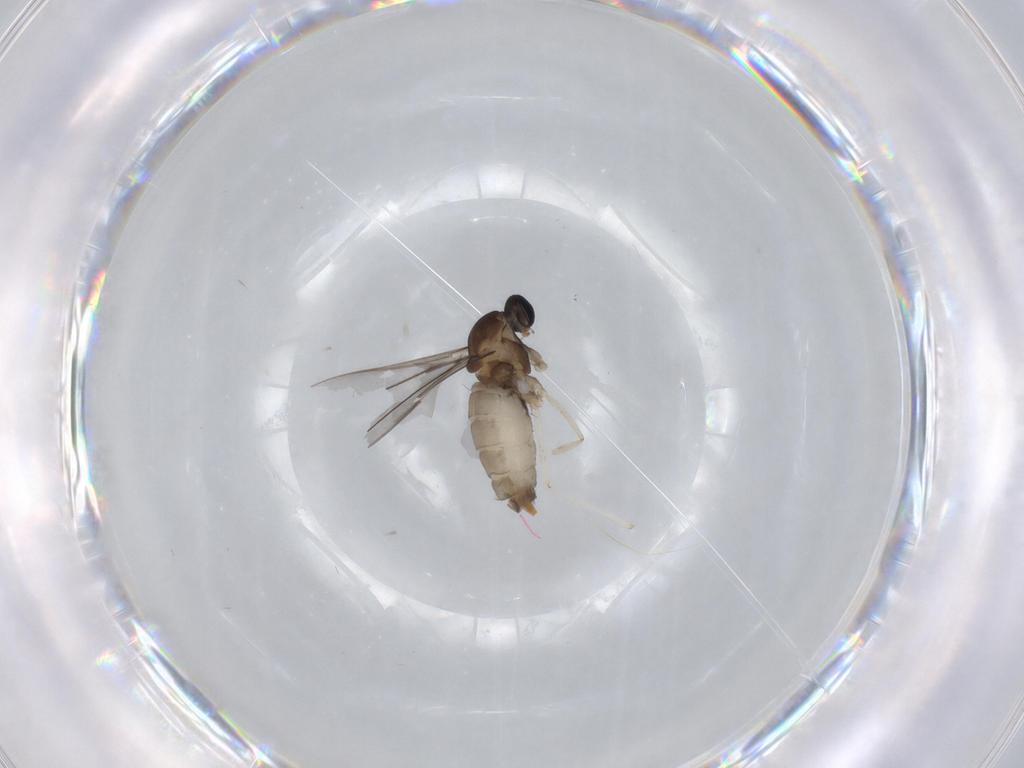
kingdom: Animalia
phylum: Arthropoda
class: Insecta
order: Diptera
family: Cecidomyiidae
